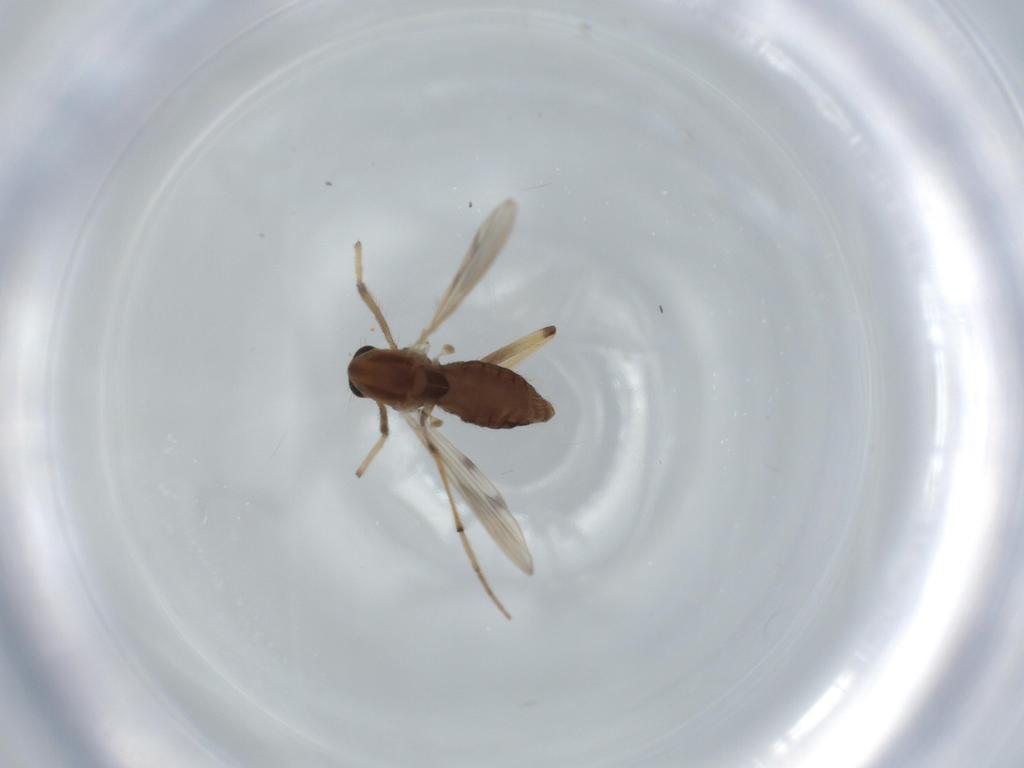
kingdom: Animalia
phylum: Arthropoda
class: Insecta
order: Diptera
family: Chironomidae
